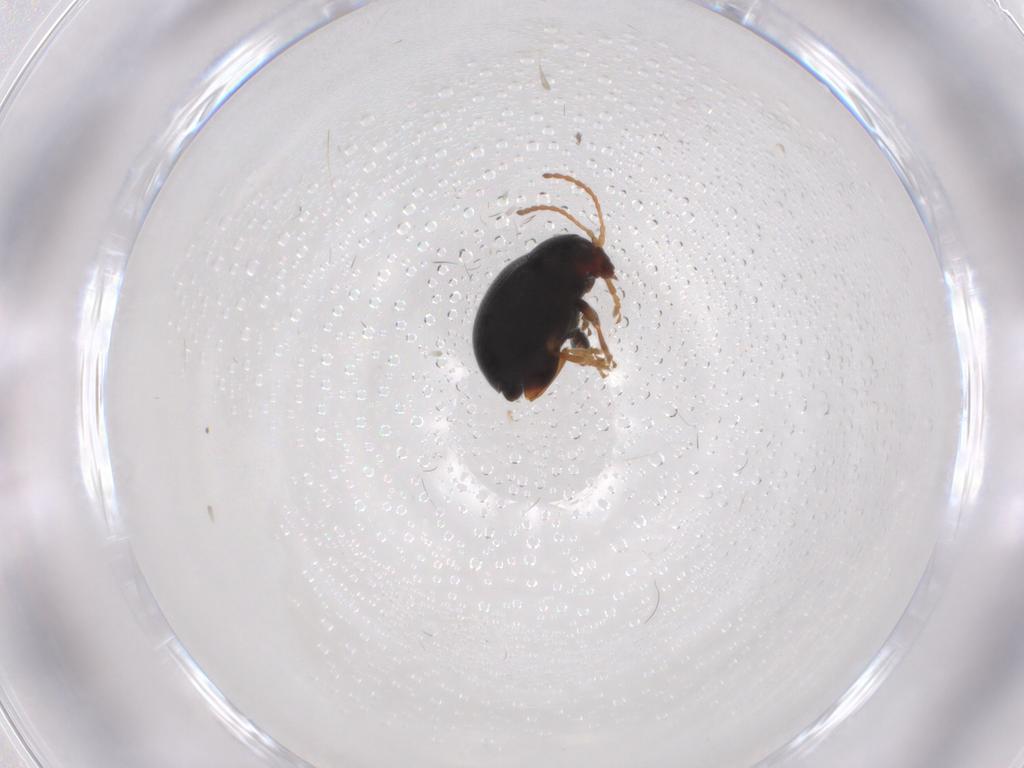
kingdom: Animalia
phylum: Arthropoda
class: Insecta
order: Coleoptera
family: Chrysomelidae
